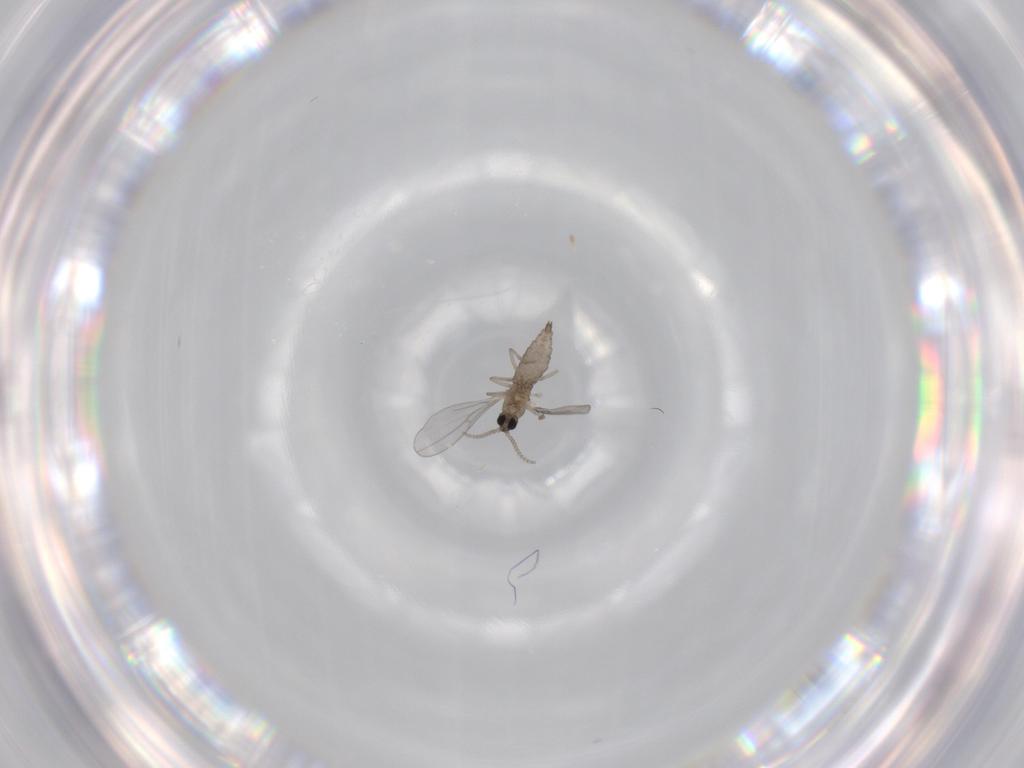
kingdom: Animalia
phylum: Arthropoda
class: Insecta
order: Diptera
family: Cecidomyiidae
